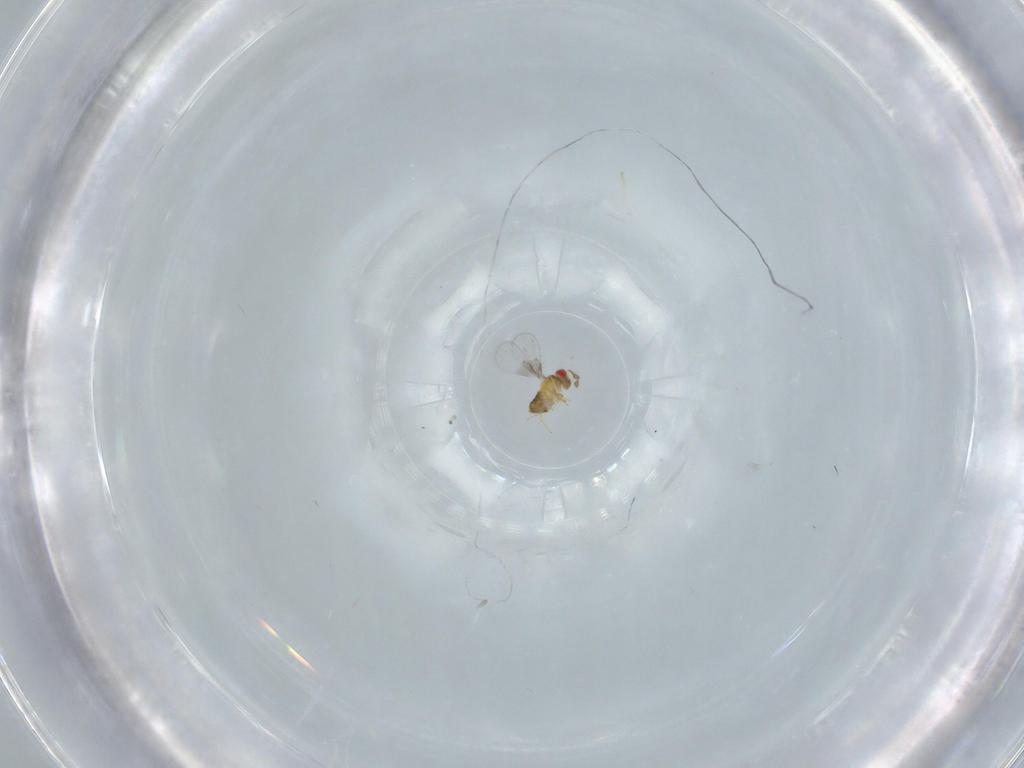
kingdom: Animalia
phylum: Arthropoda
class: Insecta
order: Hymenoptera
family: Trichogrammatidae
